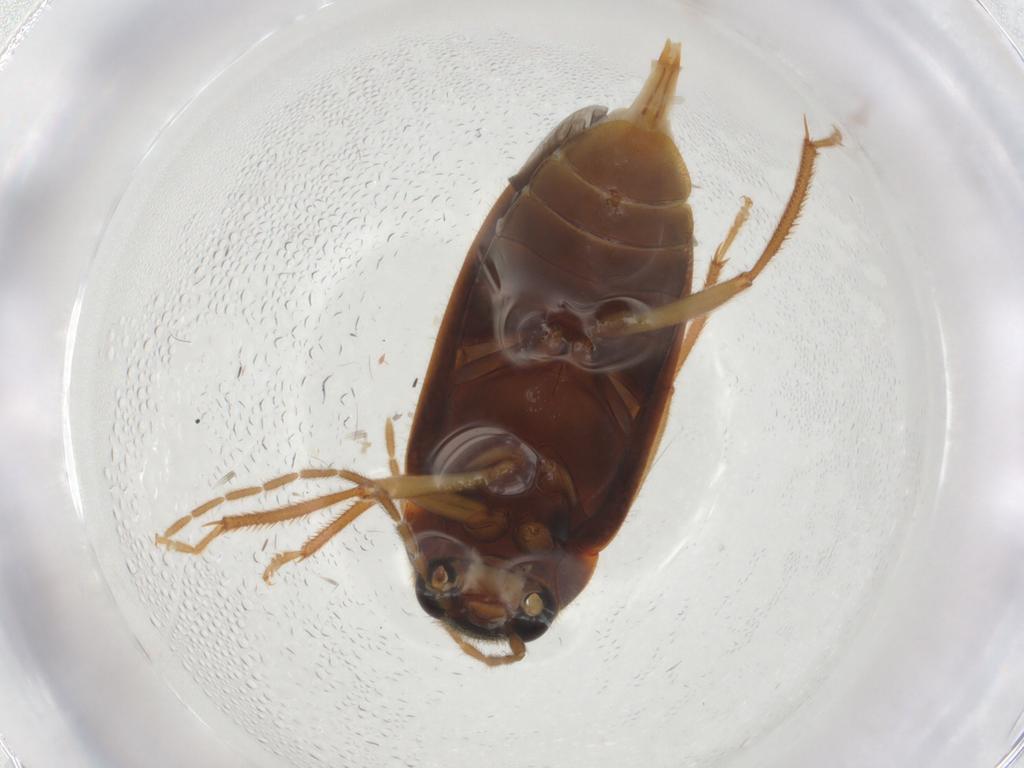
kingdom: Animalia
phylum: Arthropoda
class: Insecta
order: Coleoptera
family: Ptilodactylidae
